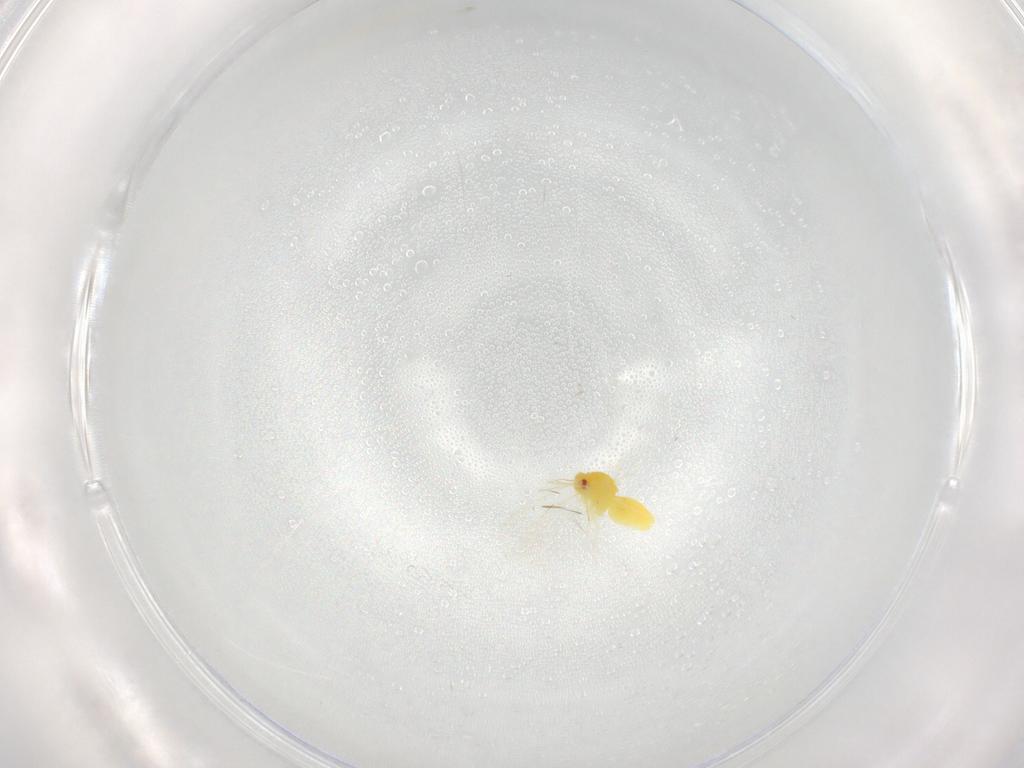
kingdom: Animalia
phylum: Arthropoda
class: Insecta
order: Hemiptera
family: Aleyrodidae
